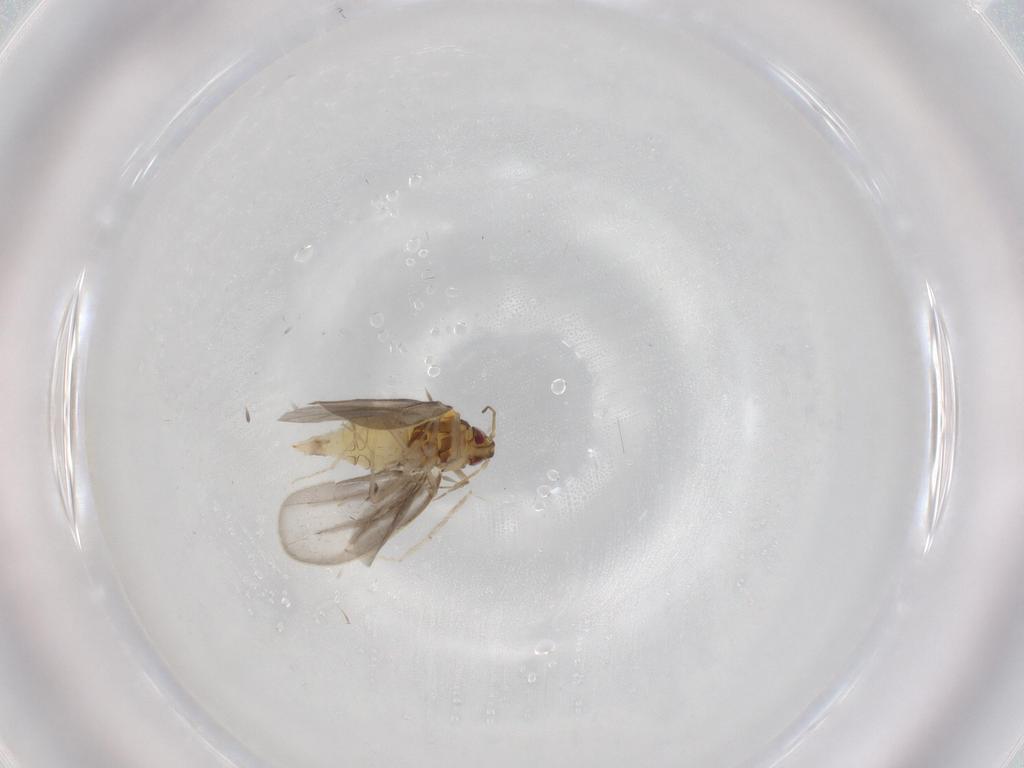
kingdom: Animalia
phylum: Arthropoda
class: Insecta
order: Hemiptera
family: Aleyrodidae
